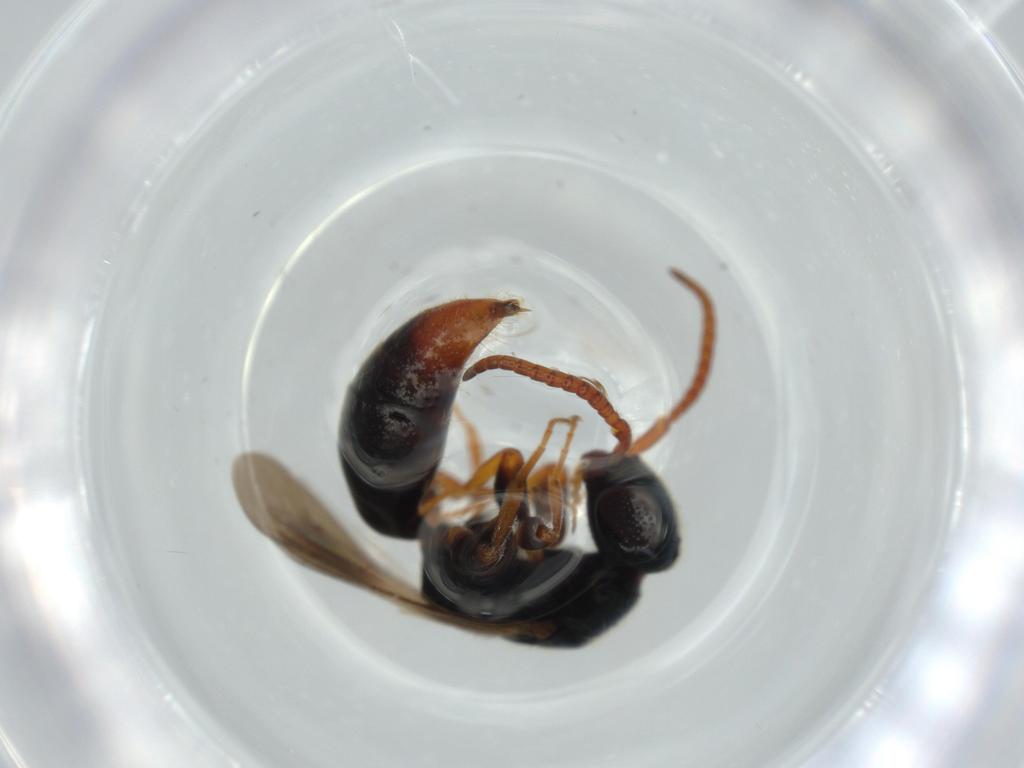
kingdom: Animalia
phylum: Arthropoda
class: Insecta
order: Hymenoptera
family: Bethylidae
